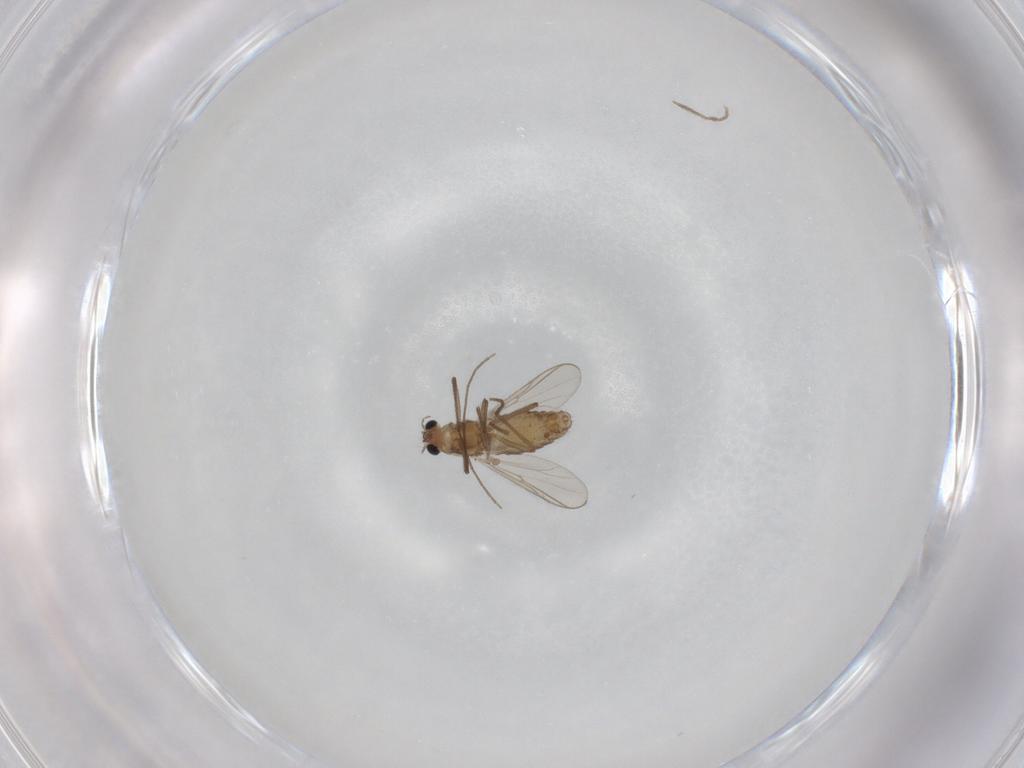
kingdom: Animalia
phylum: Arthropoda
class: Insecta
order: Diptera
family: Chironomidae
